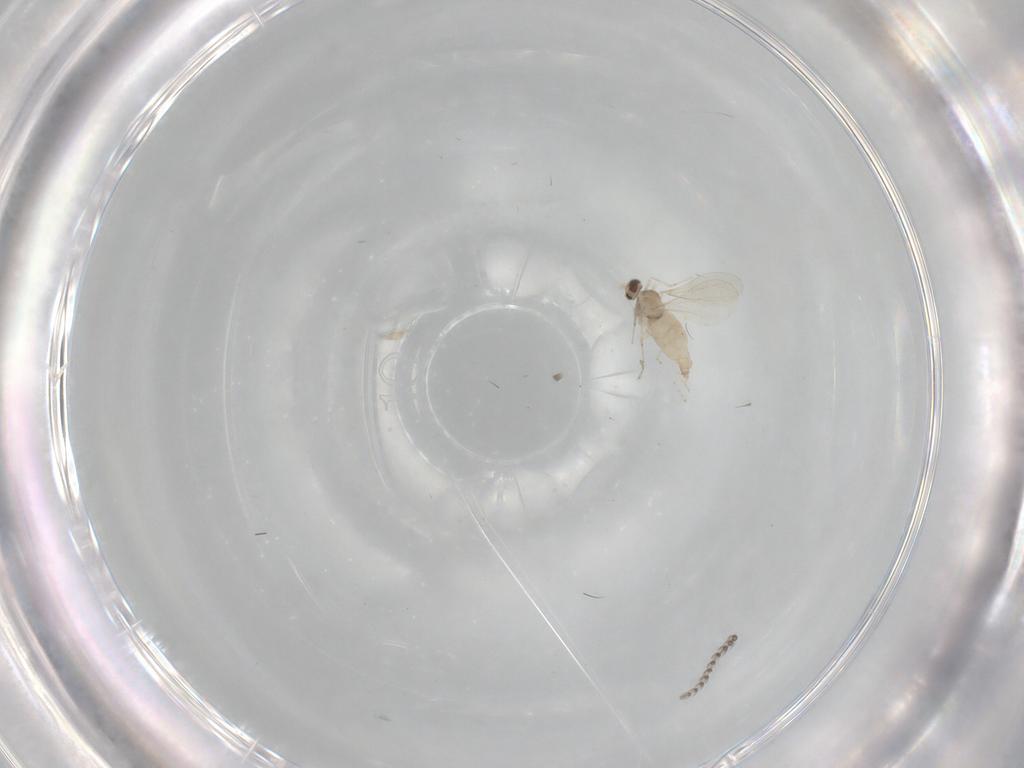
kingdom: Animalia
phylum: Arthropoda
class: Insecta
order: Diptera
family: Cecidomyiidae
